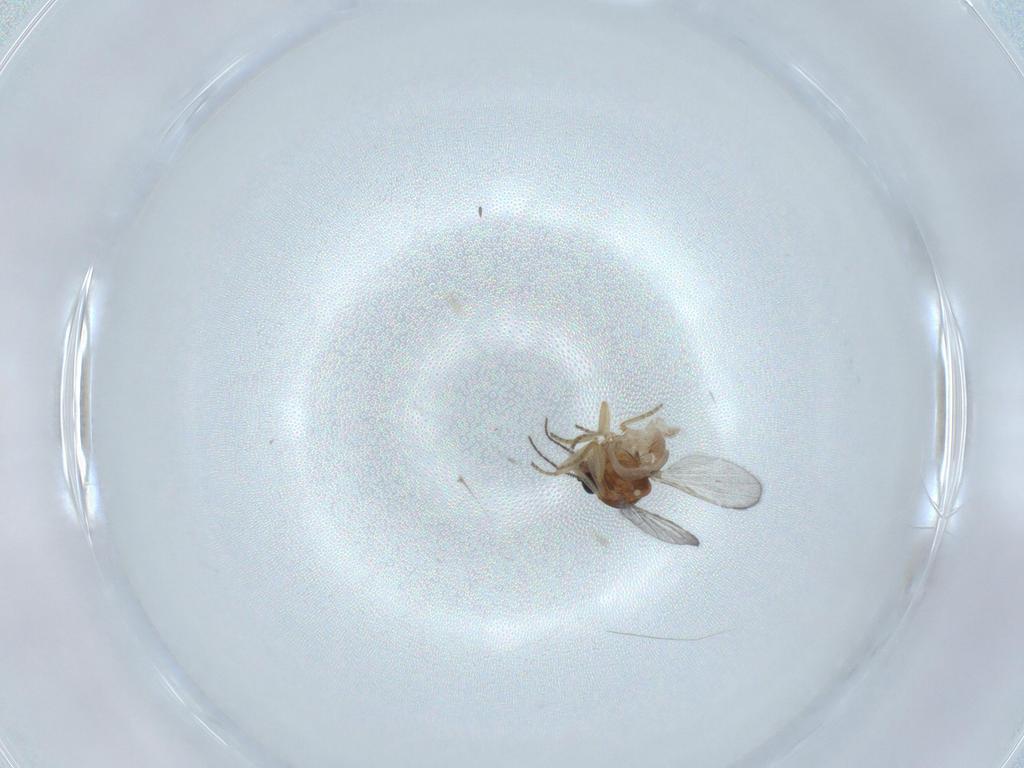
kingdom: Animalia
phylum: Arthropoda
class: Insecta
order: Diptera
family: Ceratopogonidae
